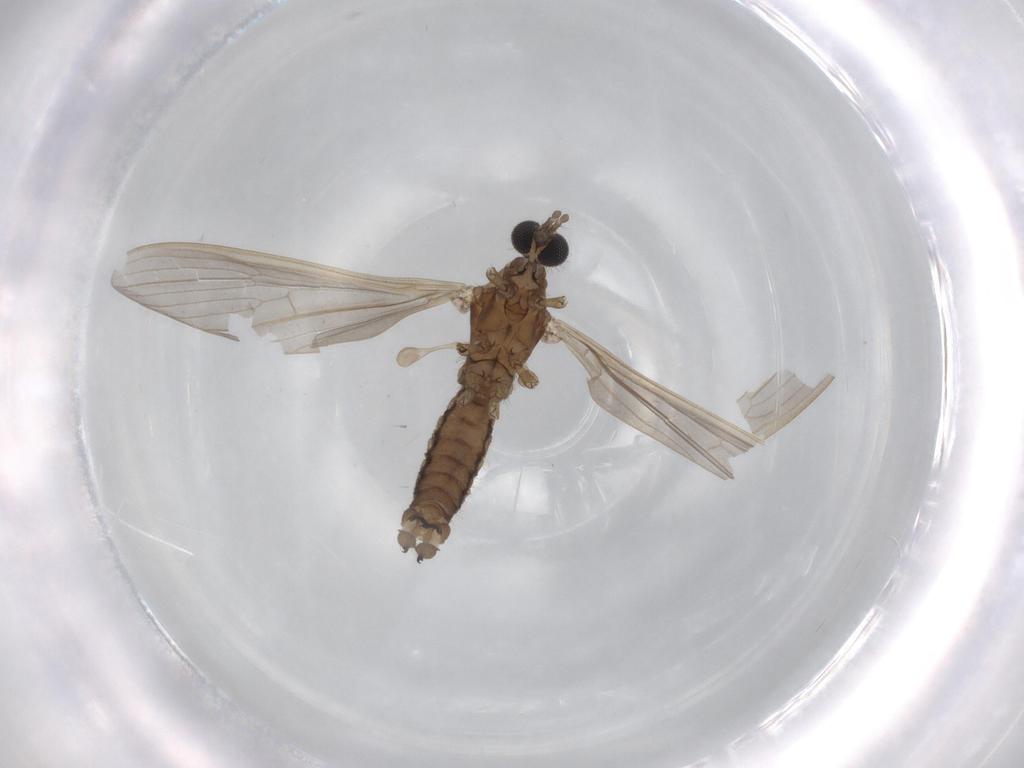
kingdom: Animalia
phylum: Arthropoda
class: Insecta
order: Diptera
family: Limoniidae
